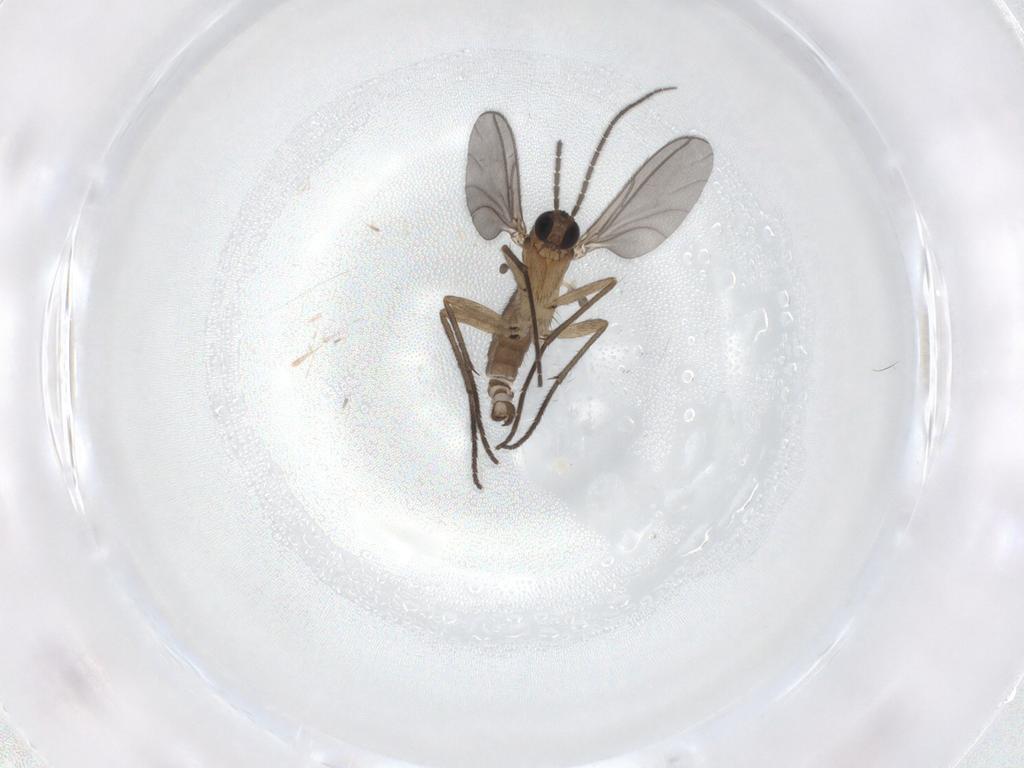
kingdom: Animalia
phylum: Arthropoda
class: Insecta
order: Diptera
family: Sciaridae
